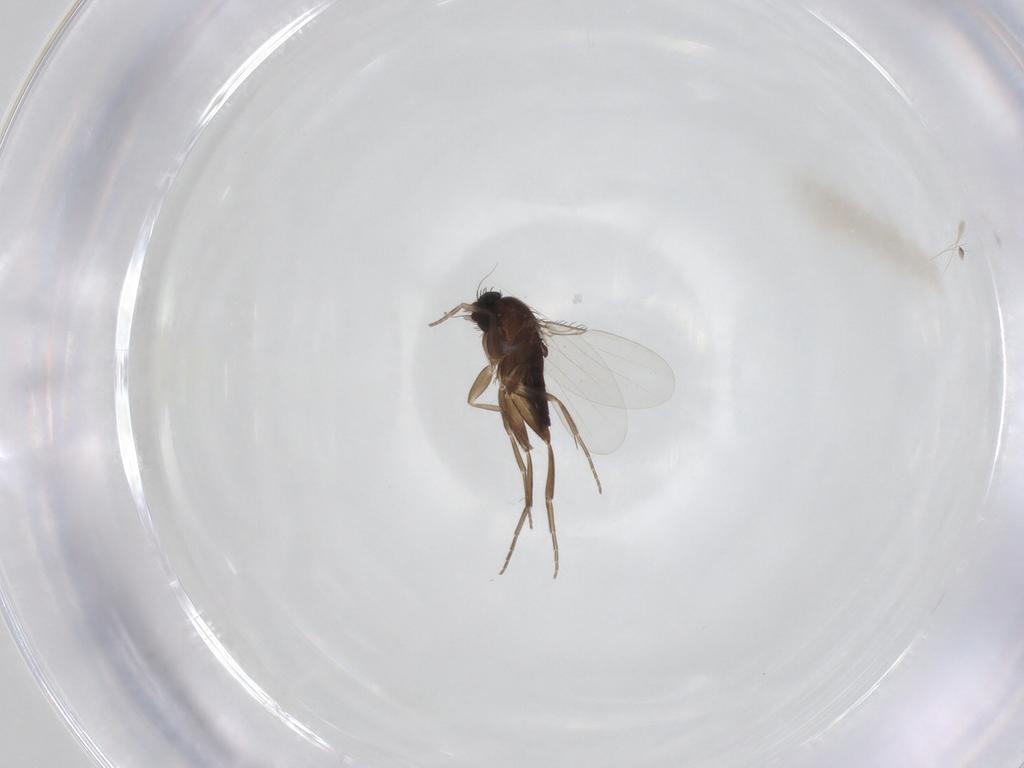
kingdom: Animalia
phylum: Arthropoda
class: Insecta
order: Diptera
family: Phoridae
